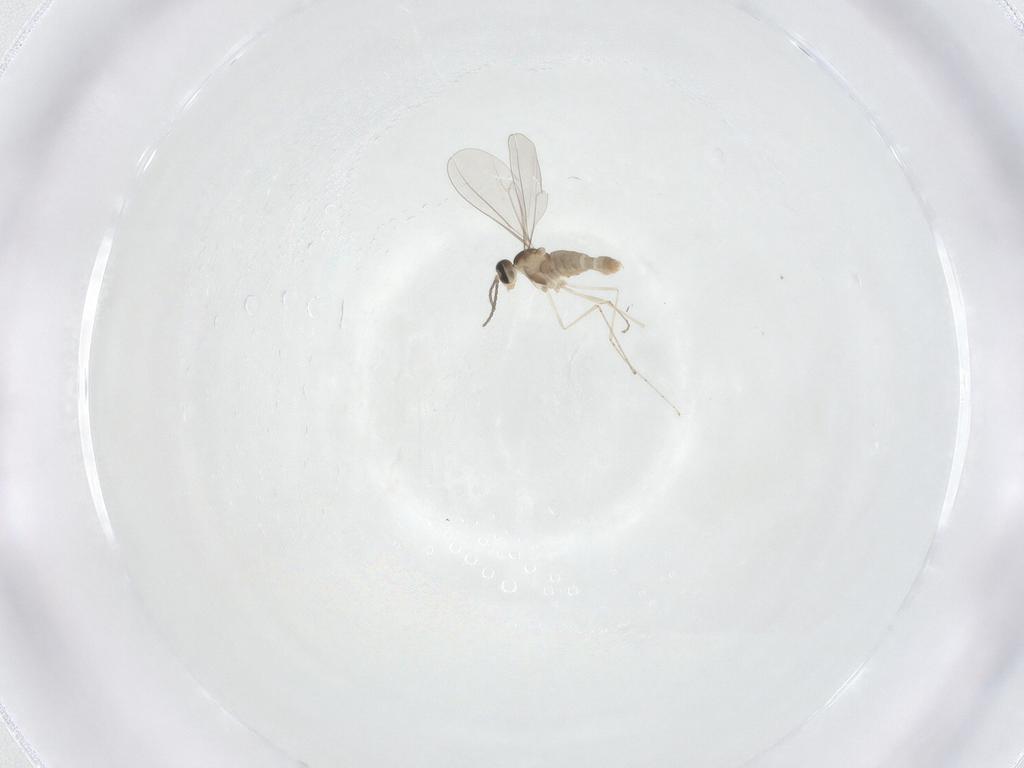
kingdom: Animalia
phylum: Arthropoda
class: Insecta
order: Diptera
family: Cecidomyiidae
